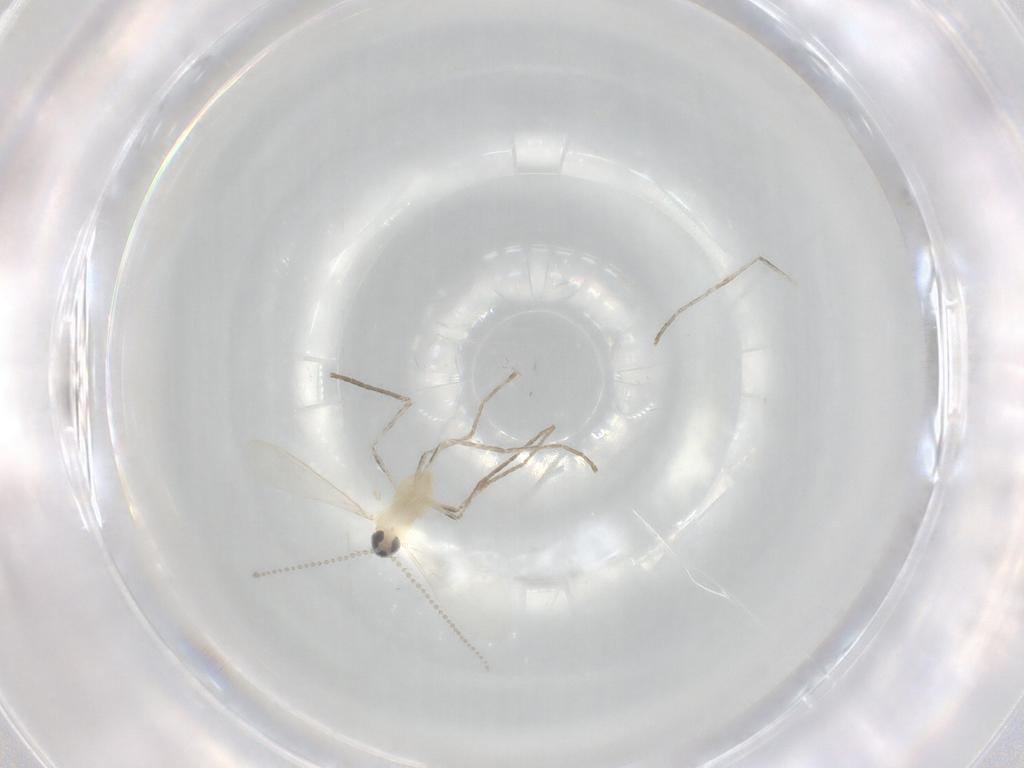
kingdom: Animalia
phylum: Arthropoda
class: Insecta
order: Diptera
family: Cecidomyiidae
